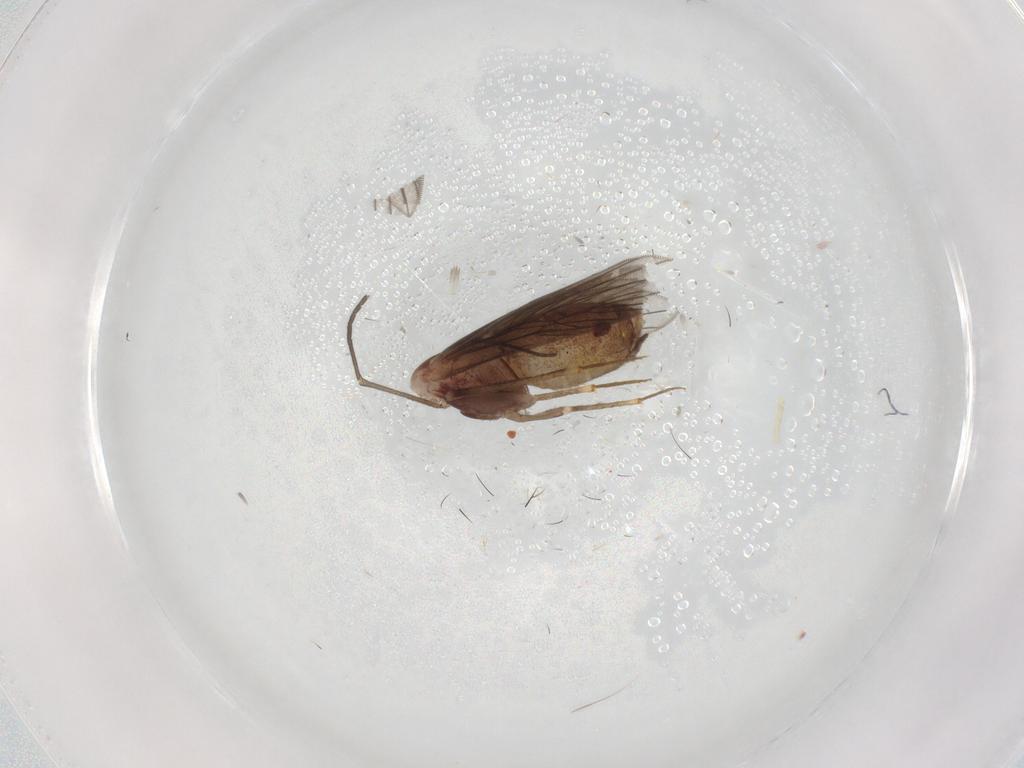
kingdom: Animalia
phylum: Arthropoda
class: Insecta
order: Psocodea
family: Lepidopsocidae
